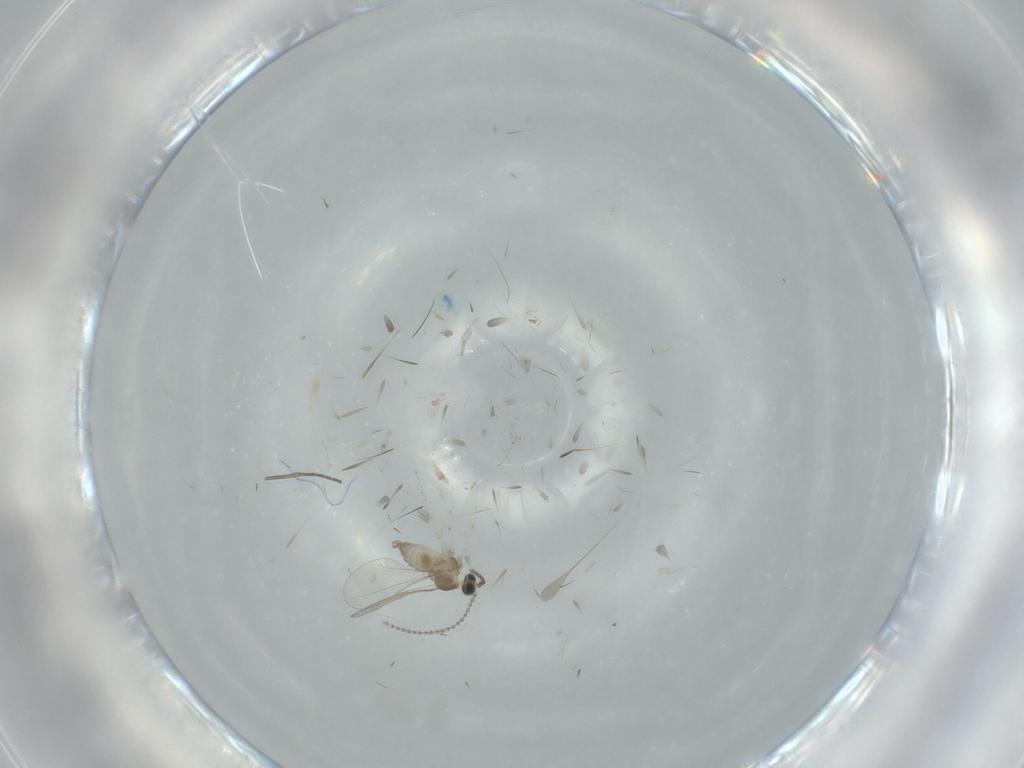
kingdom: Animalia
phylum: Arthropoda
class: Insecta
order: Diptera
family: Cecidomyiidae
